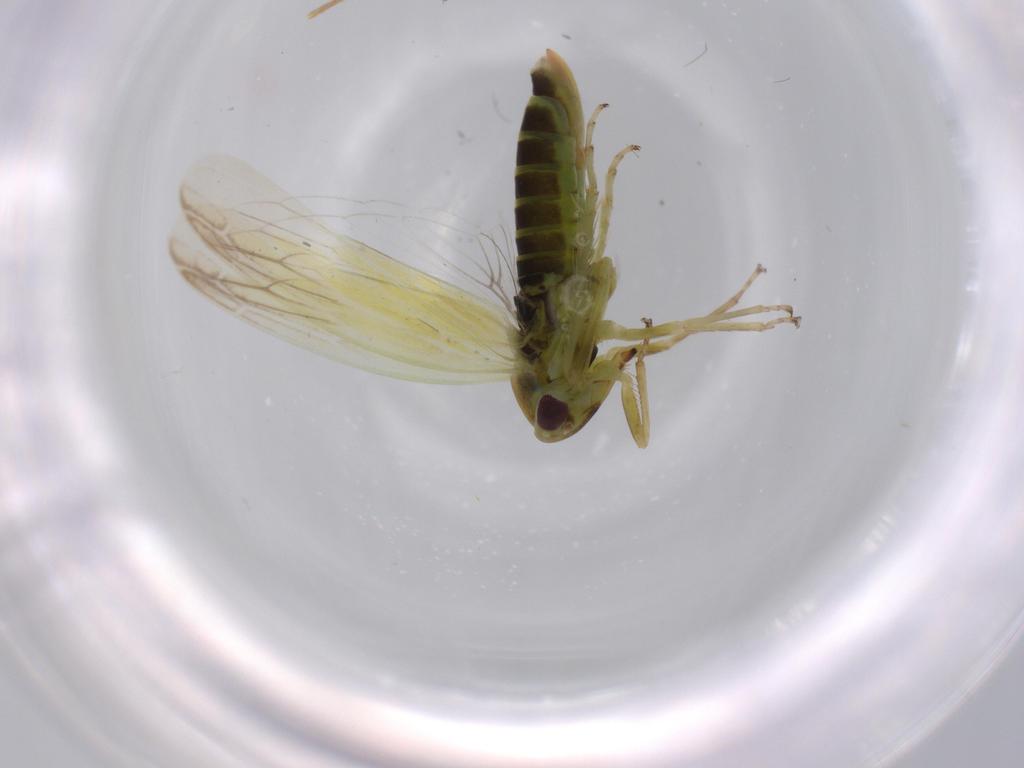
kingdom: Animalia
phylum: Arthropoda
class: Insecta
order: Hemiptera
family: Cicadellidae
